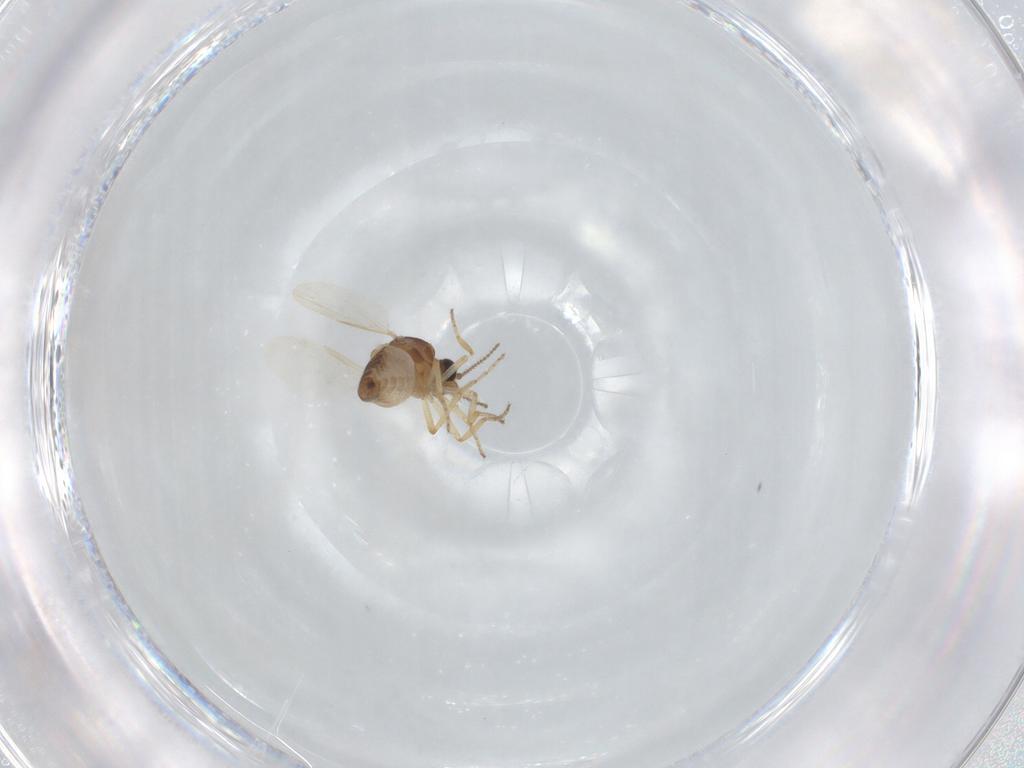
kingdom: Animalia
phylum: Arthropoda
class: Insecta
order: Diptera
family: Ceratopogonidae
